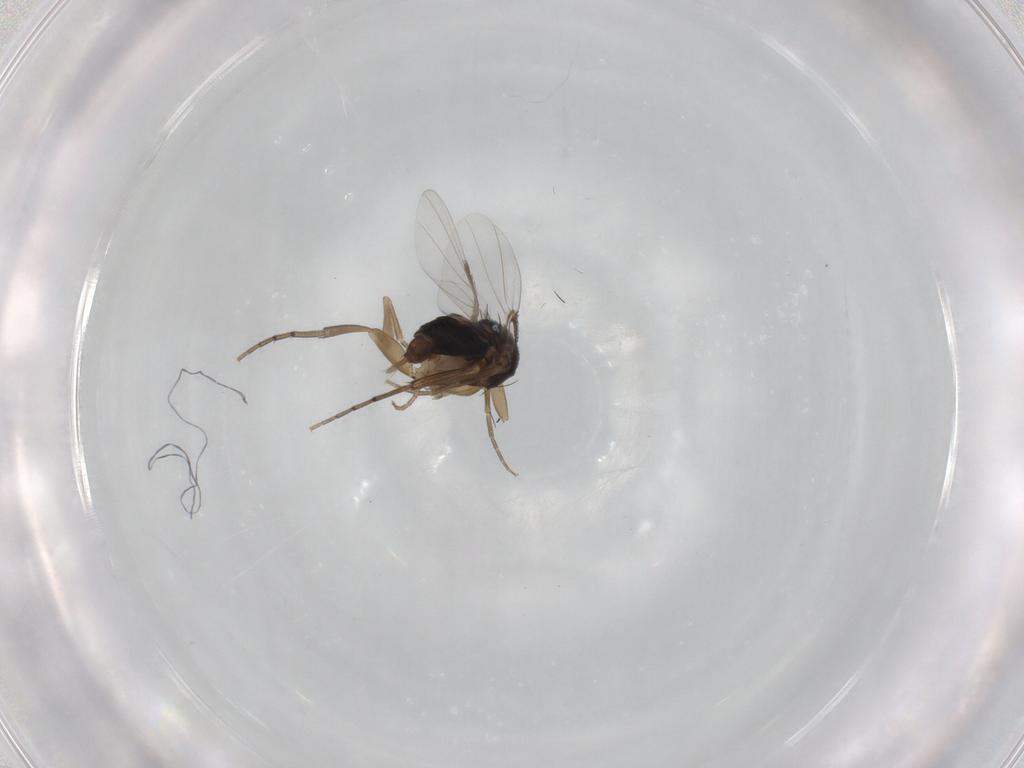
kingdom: Animalia
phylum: Arthropoda
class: Insecta
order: Diptera
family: Phoridae
